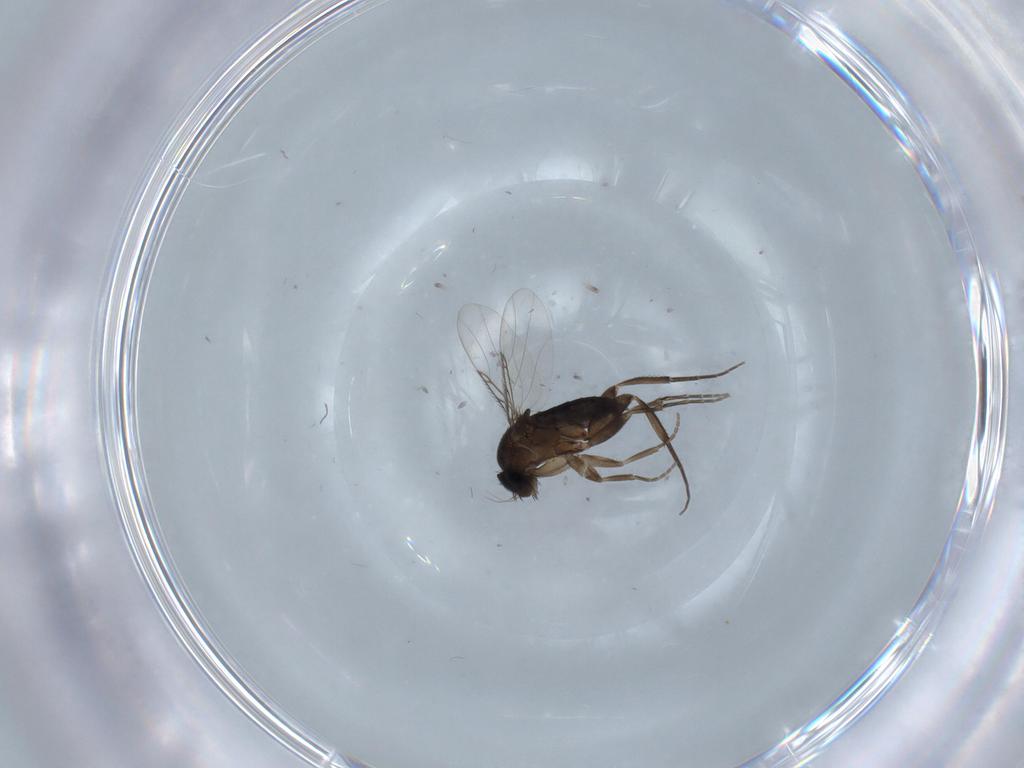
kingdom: Animalia
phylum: Arthropoda
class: Insecta
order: Diptera
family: Phoridae
